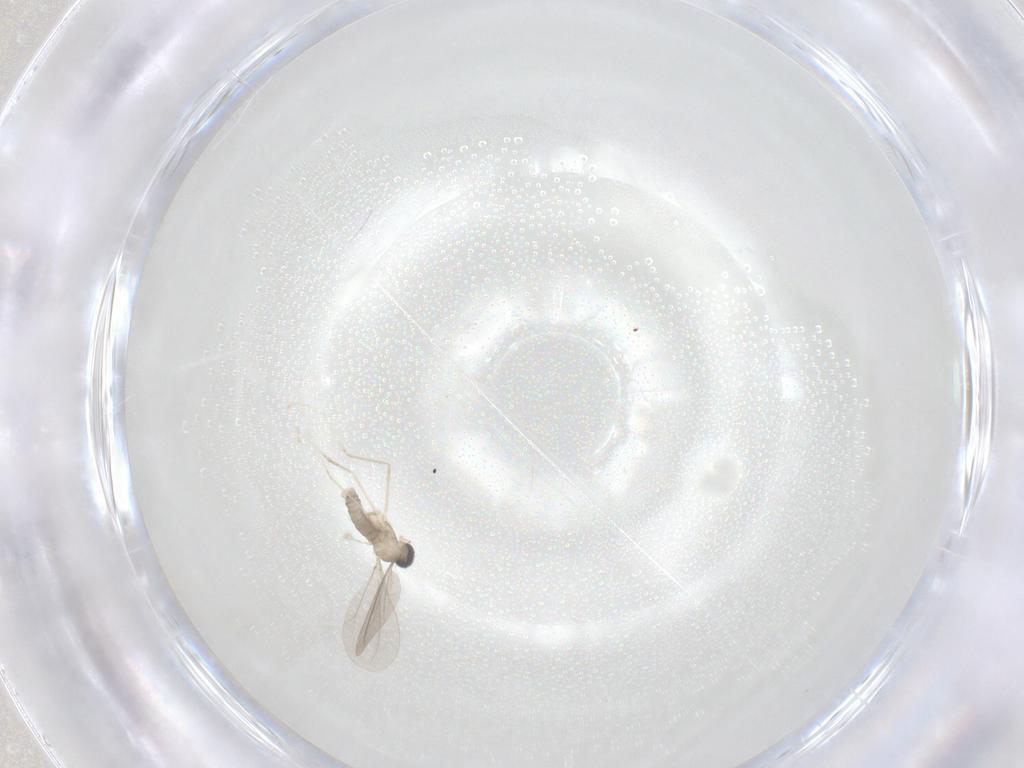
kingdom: Animalia
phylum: Arthropoda
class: Insecta
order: Diptera
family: Cecidomyiidae
